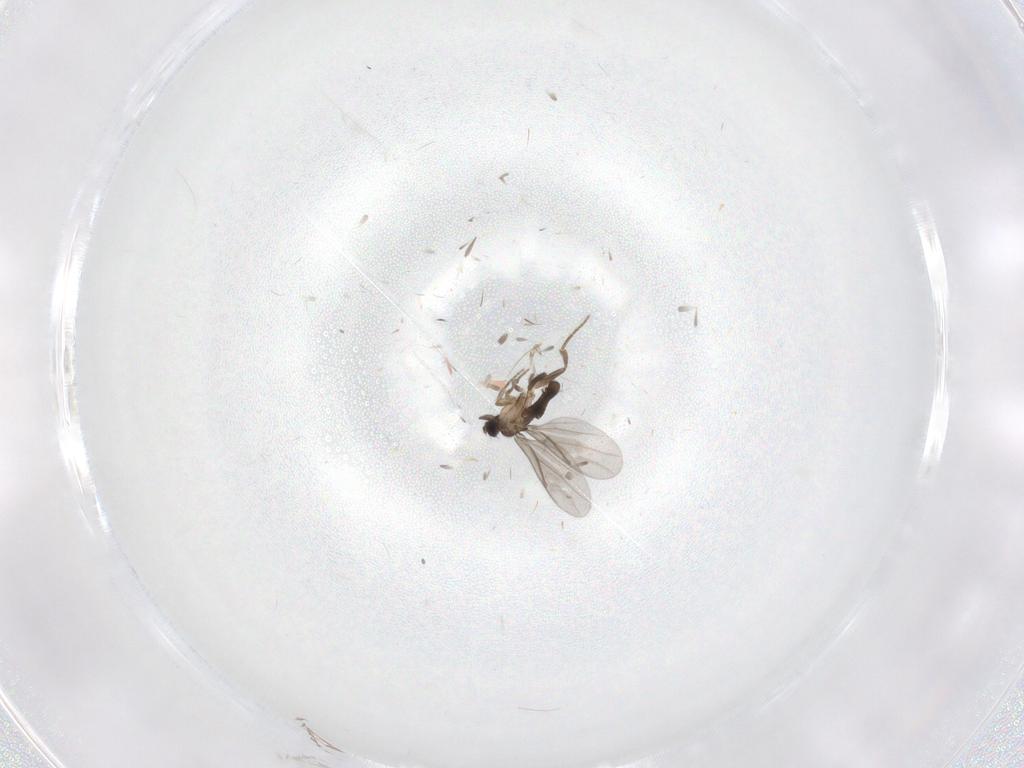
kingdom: Animalia
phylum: Arthropoda
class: Insecta
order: Diptera
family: Cecidomyiidae
